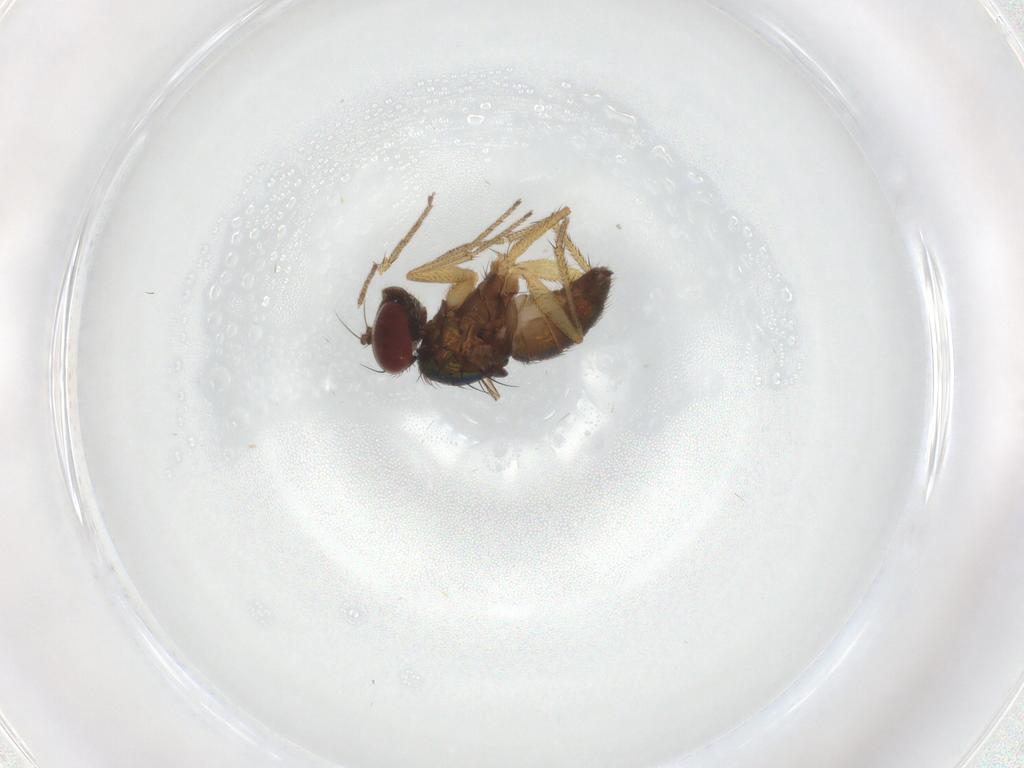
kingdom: Animalia
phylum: Arthropoda
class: Insecta
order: Diptera
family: Dolichopodidae
